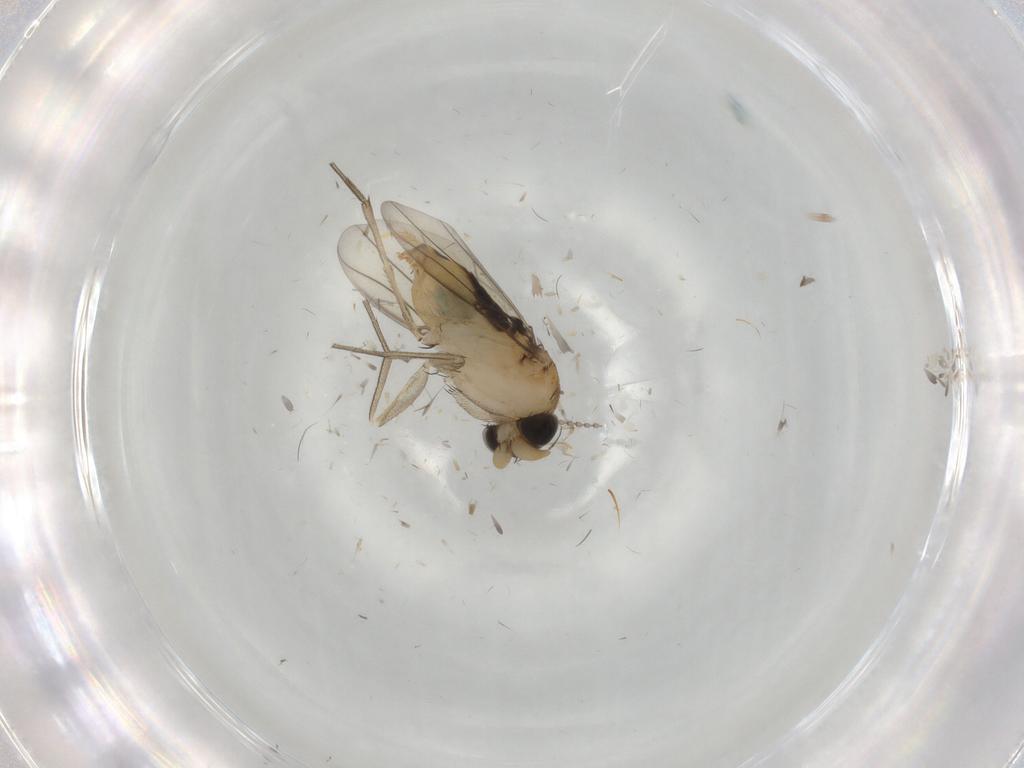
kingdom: Animalia
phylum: Arthropoda
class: Insecta
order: Diptera
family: Phoridae
